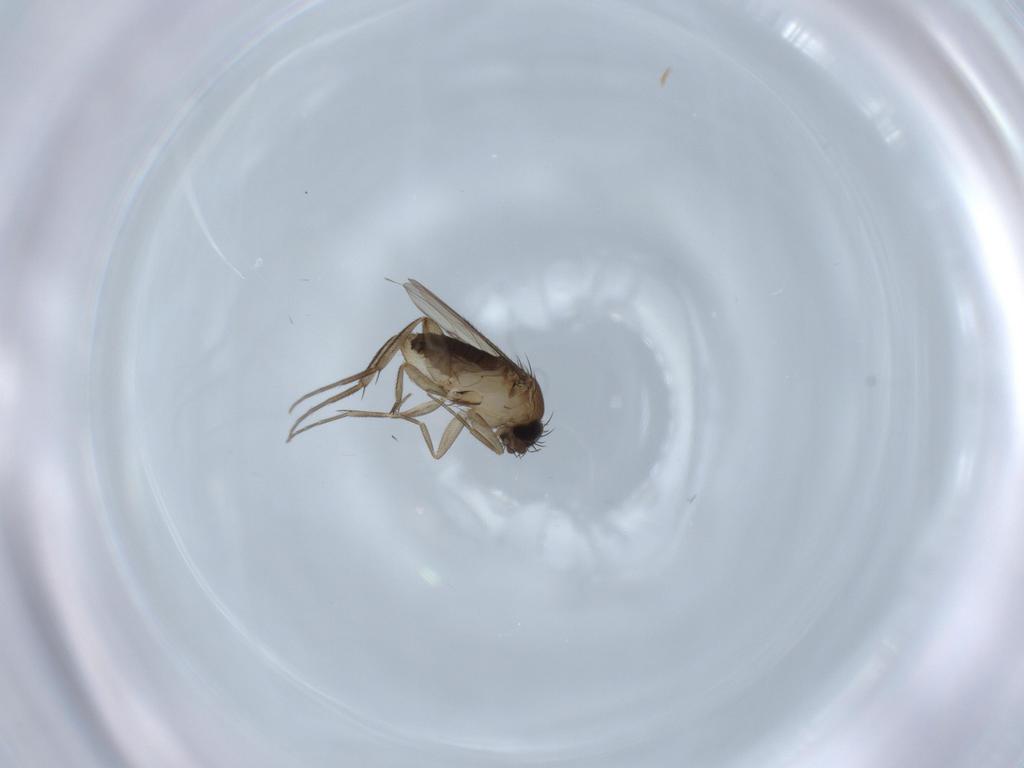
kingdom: Animalia
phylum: Arthropoda
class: Insecta
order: Diptera
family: Phoridae
